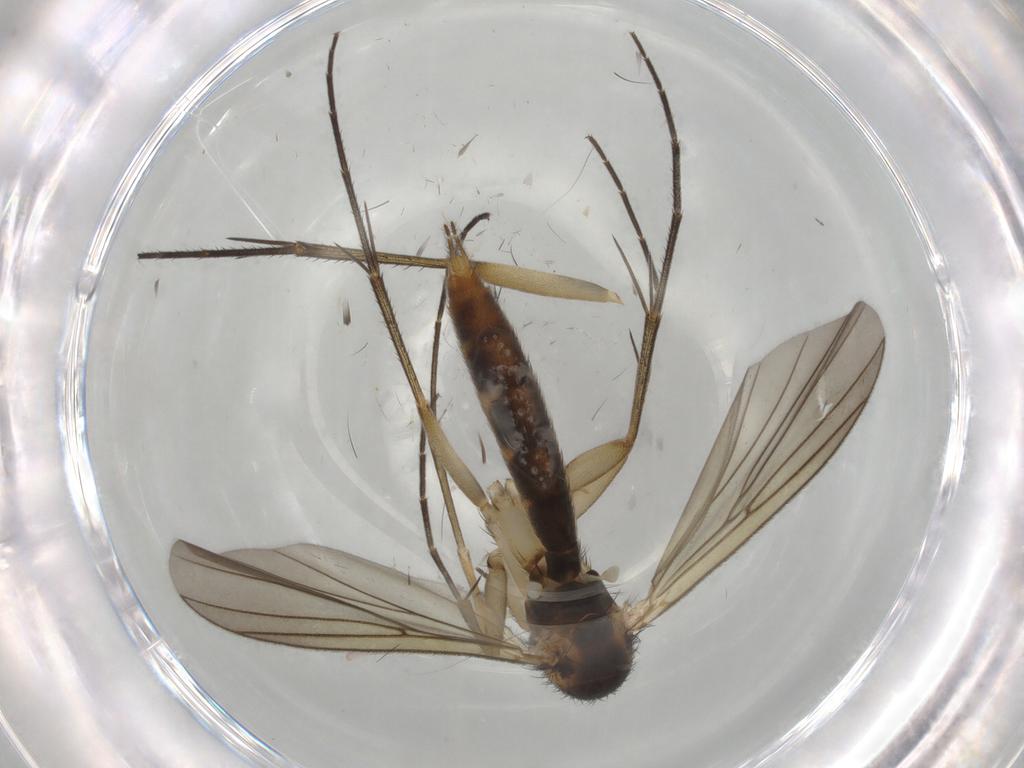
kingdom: Animalia
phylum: Arthropoda
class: Insecta
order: Diptera
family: Mycetophilidae
